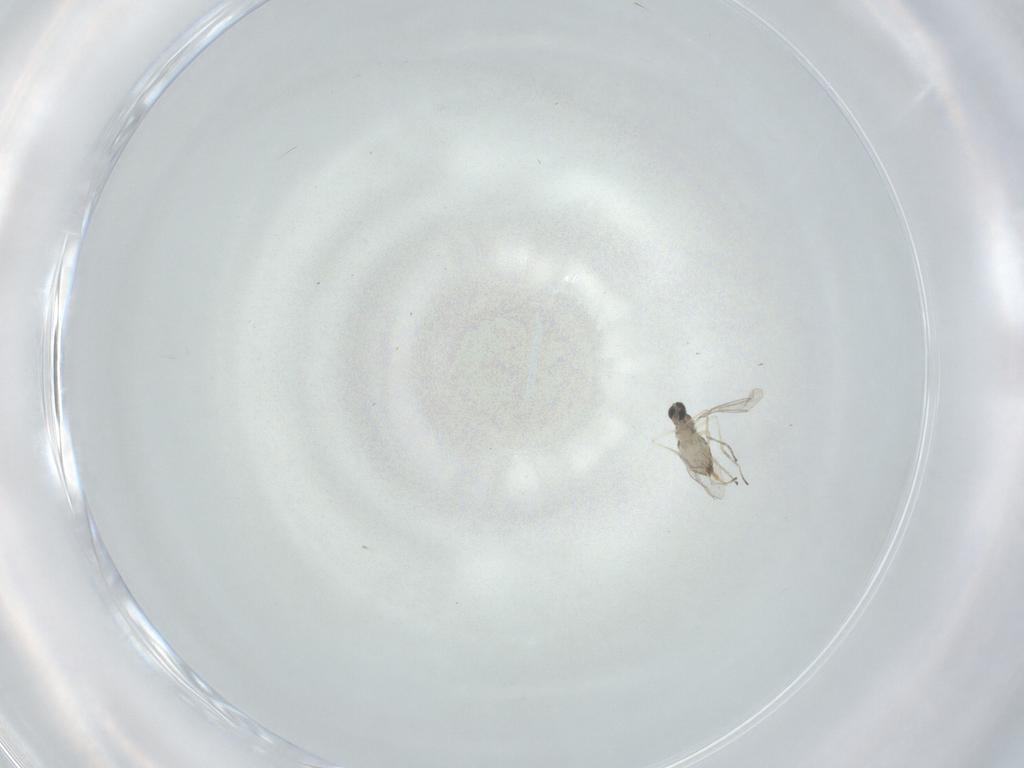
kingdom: Animalia
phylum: Arthropoda
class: Insecta
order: Diptera
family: Cecidomyiidae
